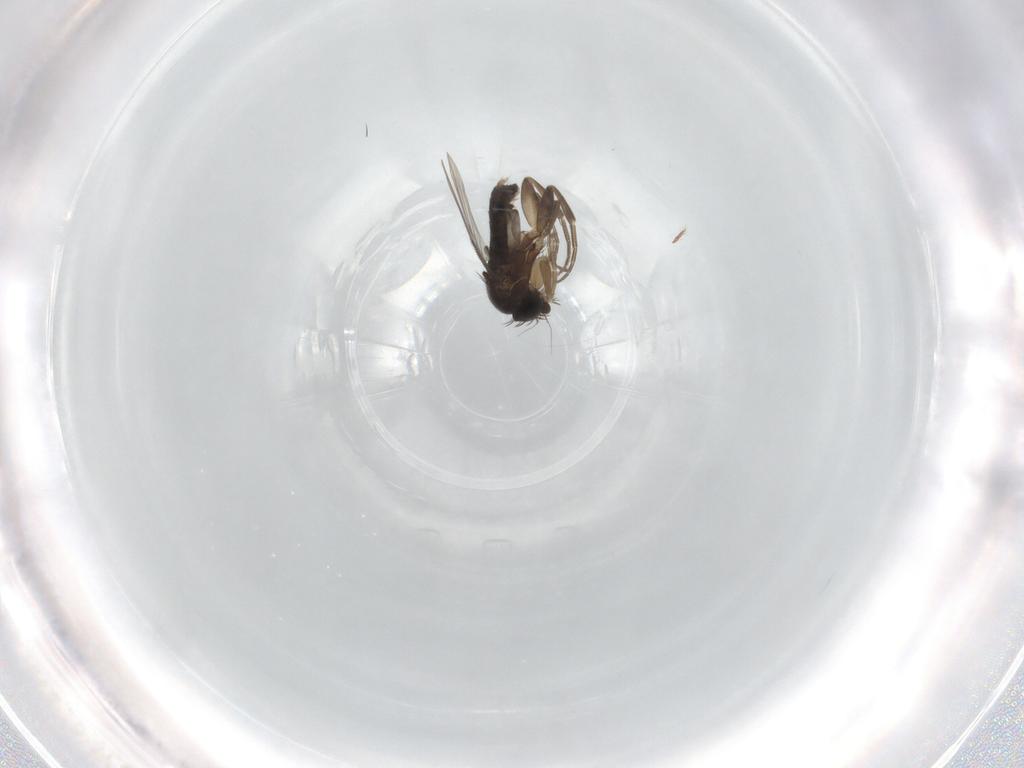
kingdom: Animalia
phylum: Arthropoda
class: Insecta
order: Diptera
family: Phoridae
